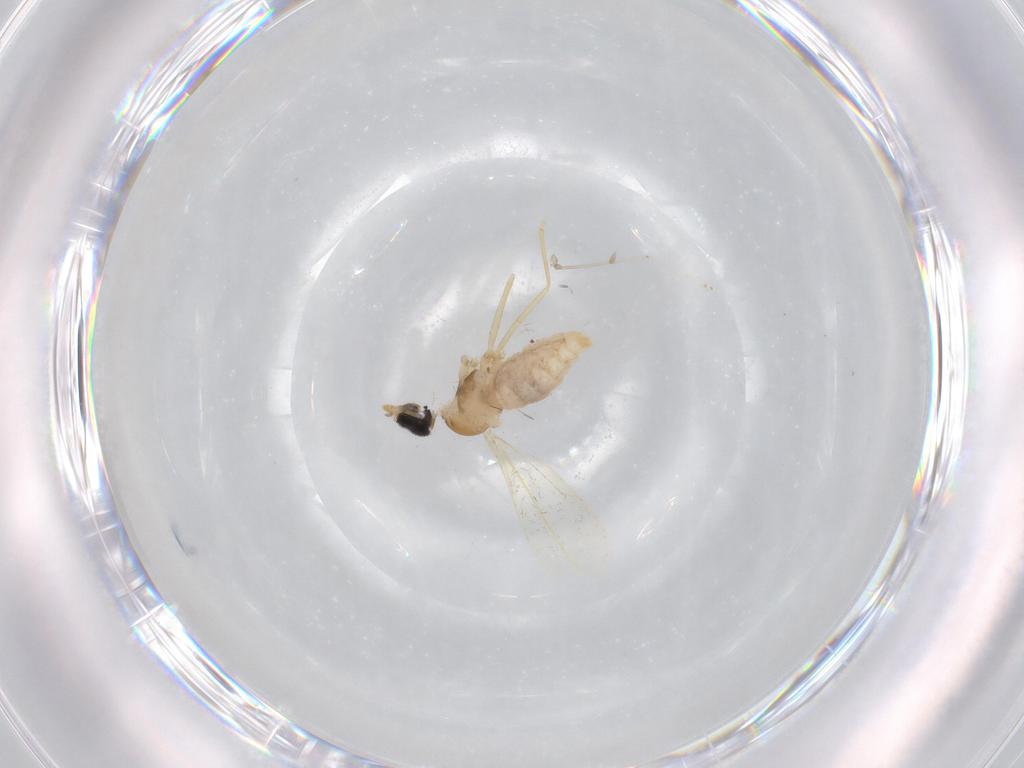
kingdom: Animalia
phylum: Arthropoda
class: Insecta
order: Diptera
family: Cecidomyiidae
